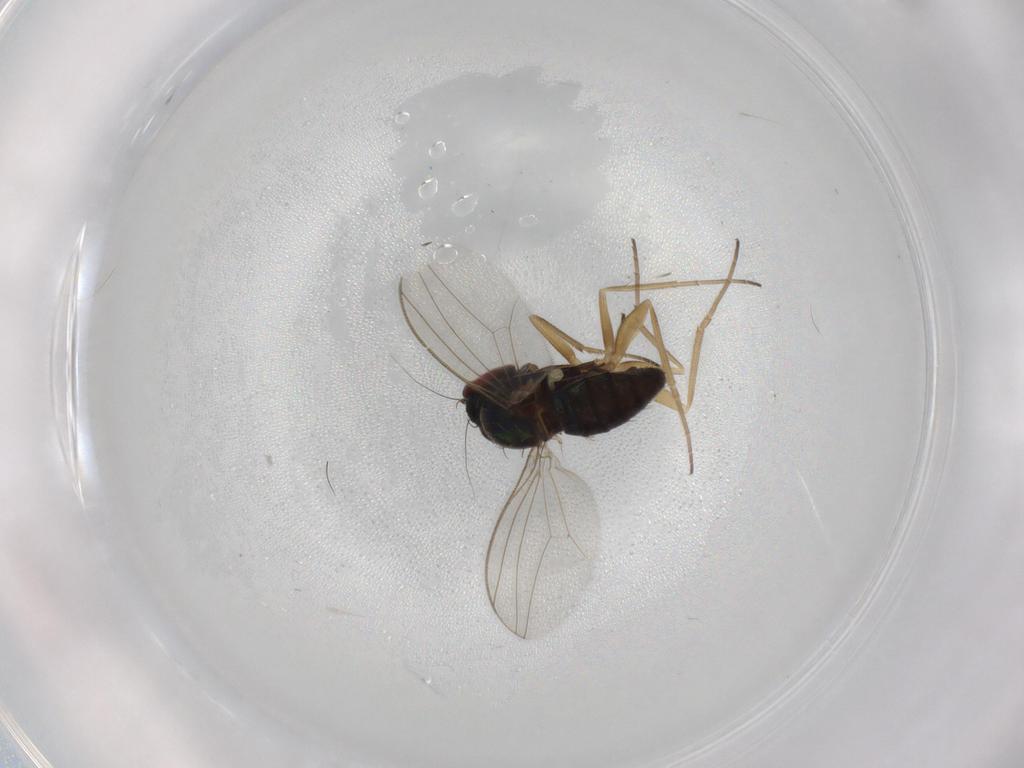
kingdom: Animalia
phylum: Arthropoda
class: Insecta
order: Diptera
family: Dolichopodidae
